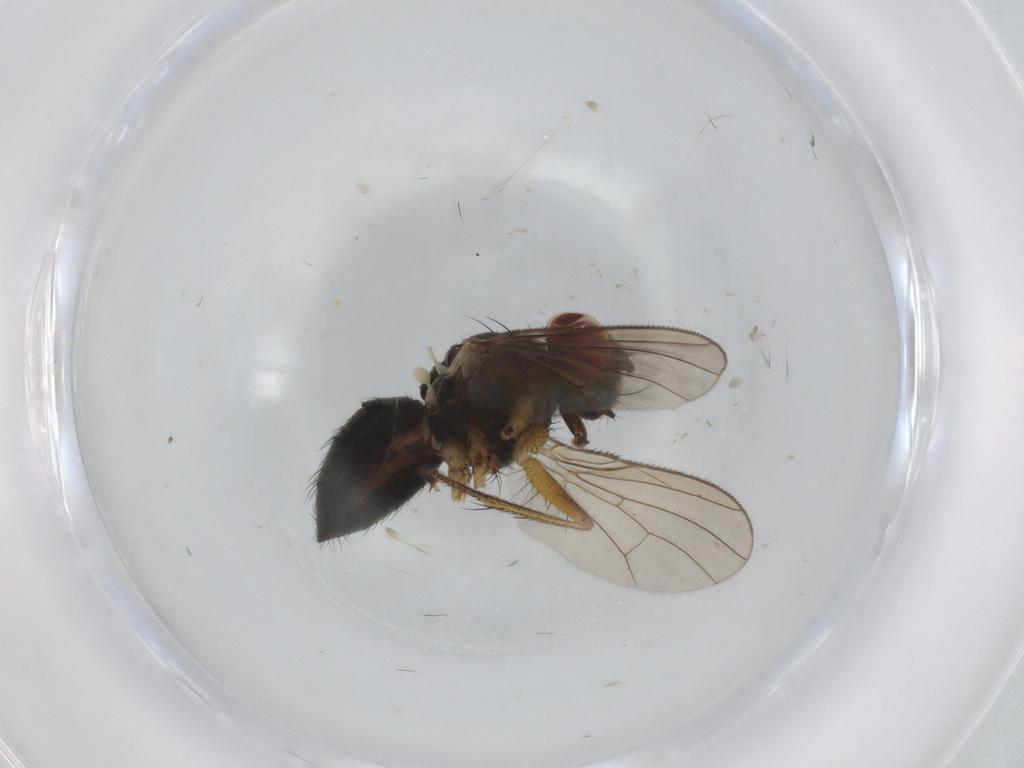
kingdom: Animalia
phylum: Arthropoda
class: Insecta
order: Diptera
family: Muscidae
